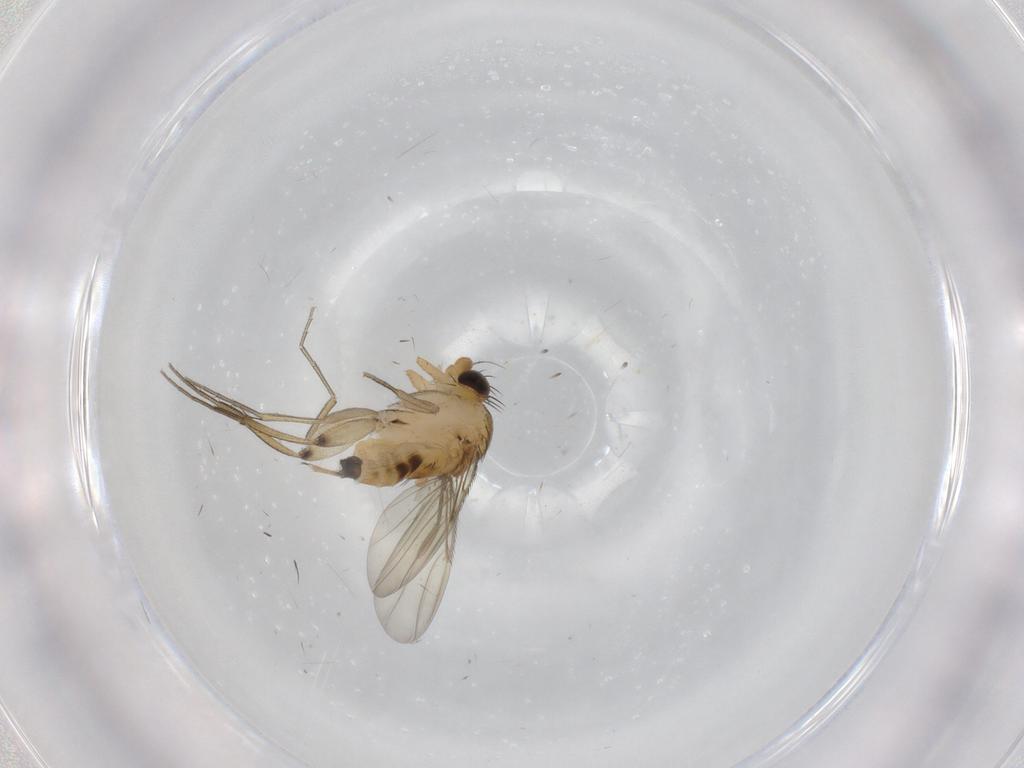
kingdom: Animalia
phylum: Arthropoda
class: Insecta
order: Diptera
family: Phoridae
